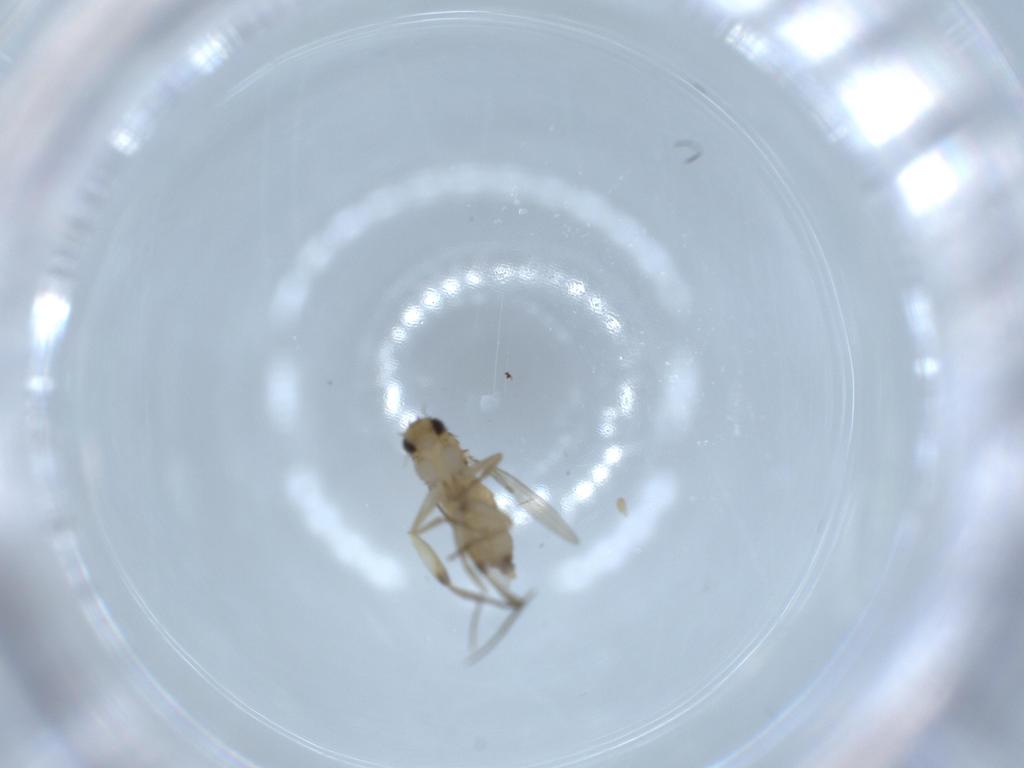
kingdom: Animalia
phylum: Arthropoda
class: Insecta
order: Diptera
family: Phoridae
